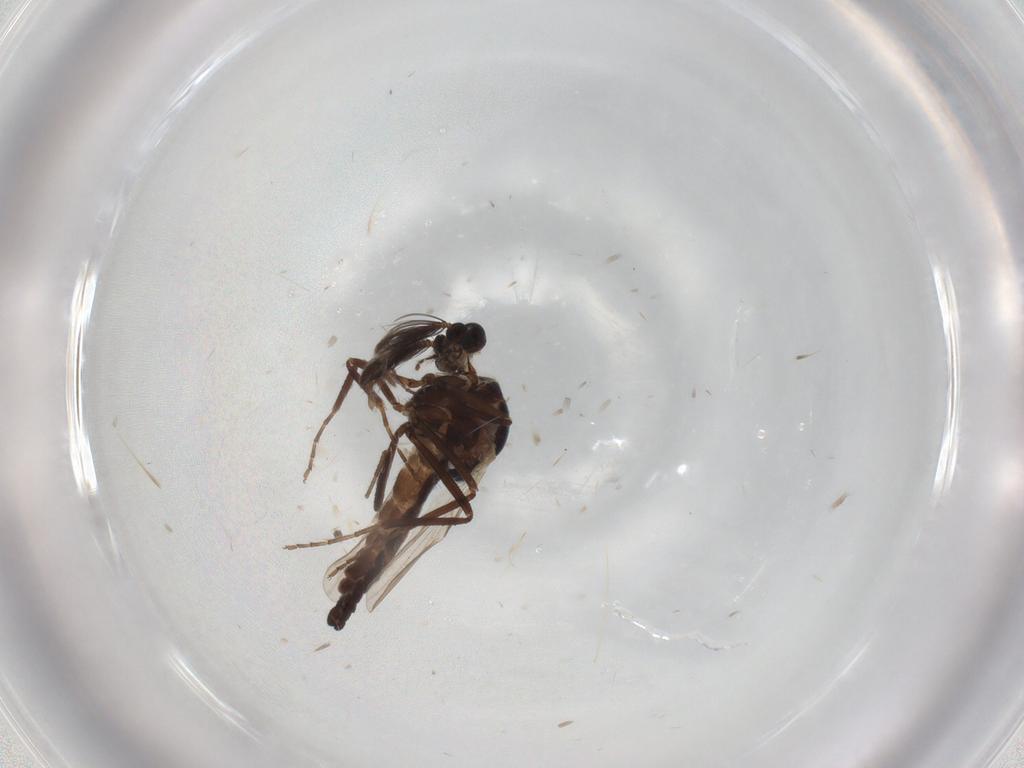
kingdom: Animalia
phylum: Arthropoda
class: Insecta
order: Diptera
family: Ceratopogonidae
